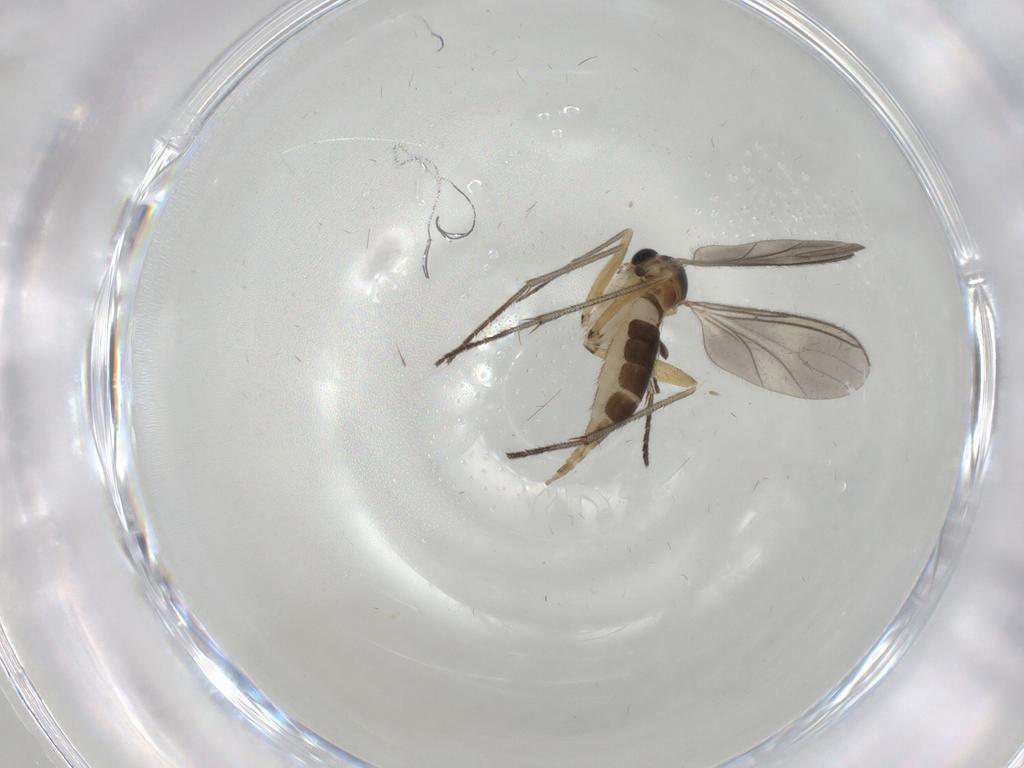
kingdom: Animalia
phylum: Arthropoda
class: Insecta
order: Diptera
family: Sciaridae
